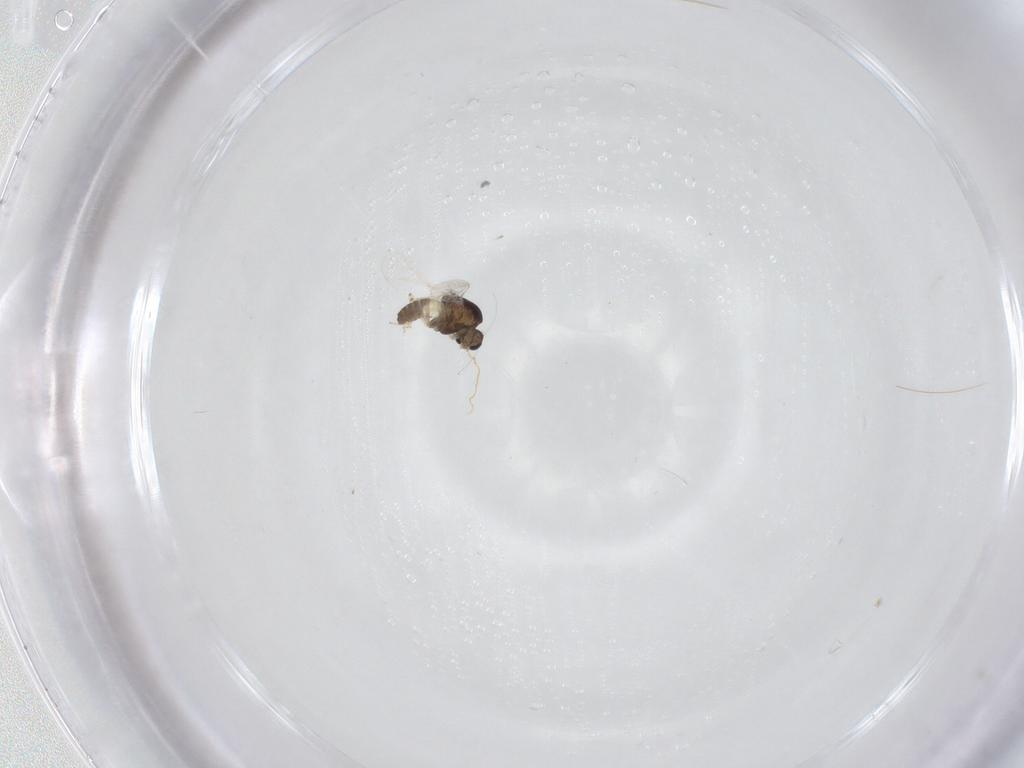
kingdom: Animalia
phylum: Arthropoda
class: Insecta
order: Diptera
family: Chironomidae
